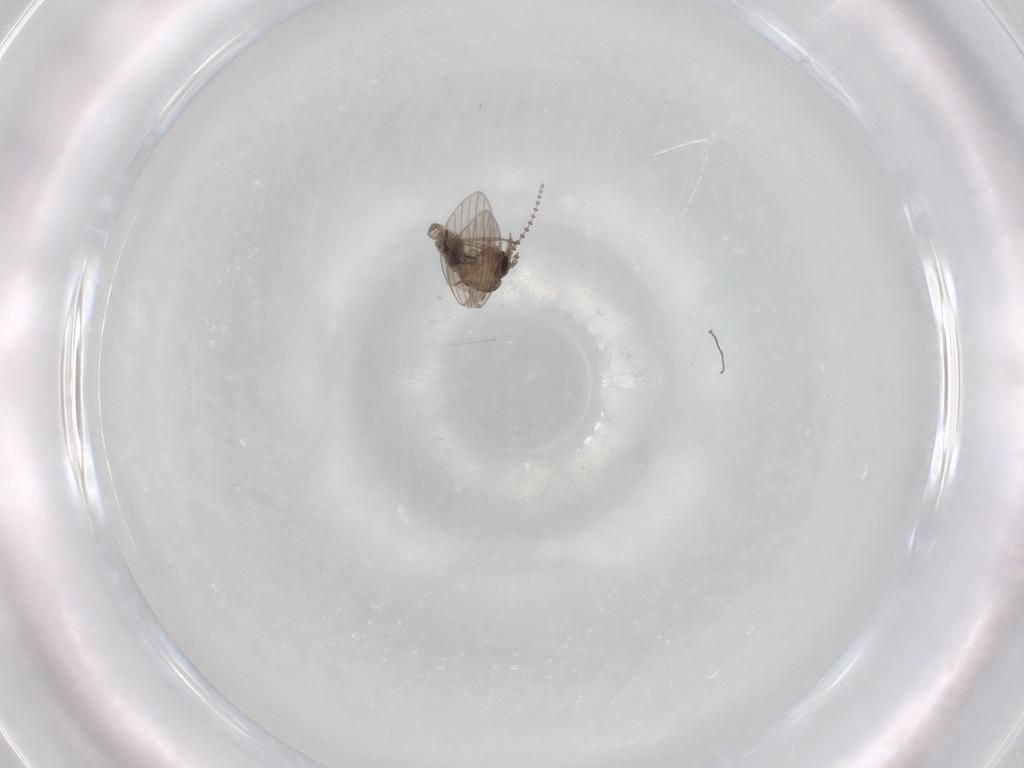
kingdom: Animalia
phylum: Arthropoda
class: Insecta
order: Diptera
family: Psychodidae
